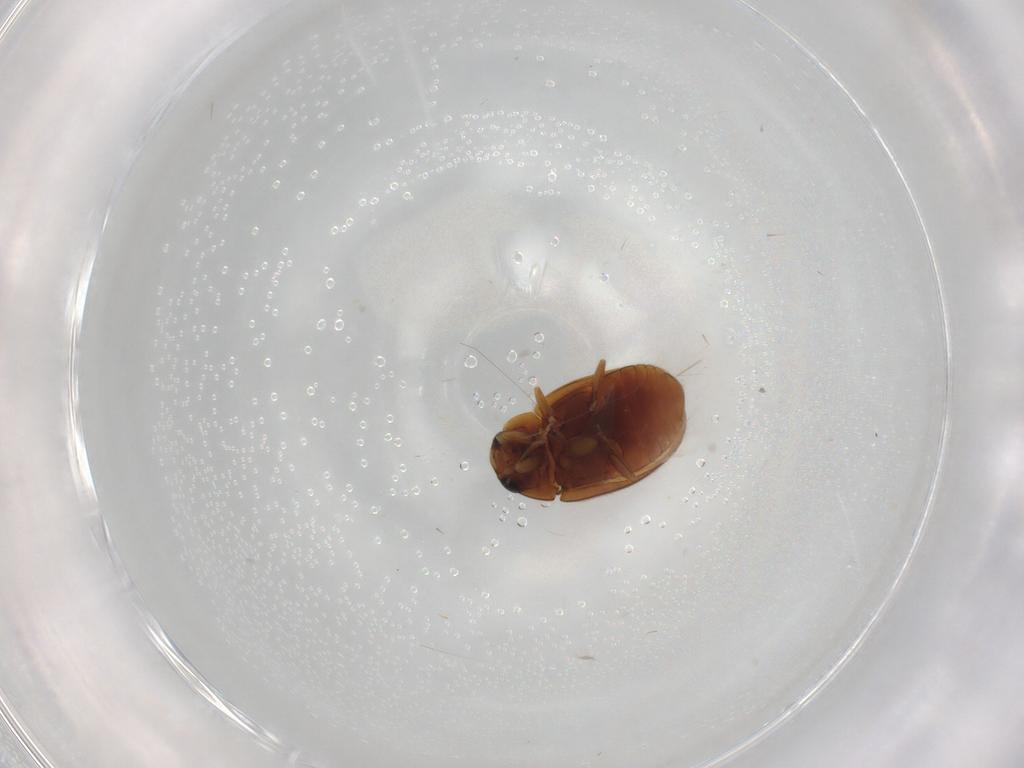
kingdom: Animalia
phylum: Arthropoda
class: Insecta
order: Coleoptera
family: Coccinellidae
